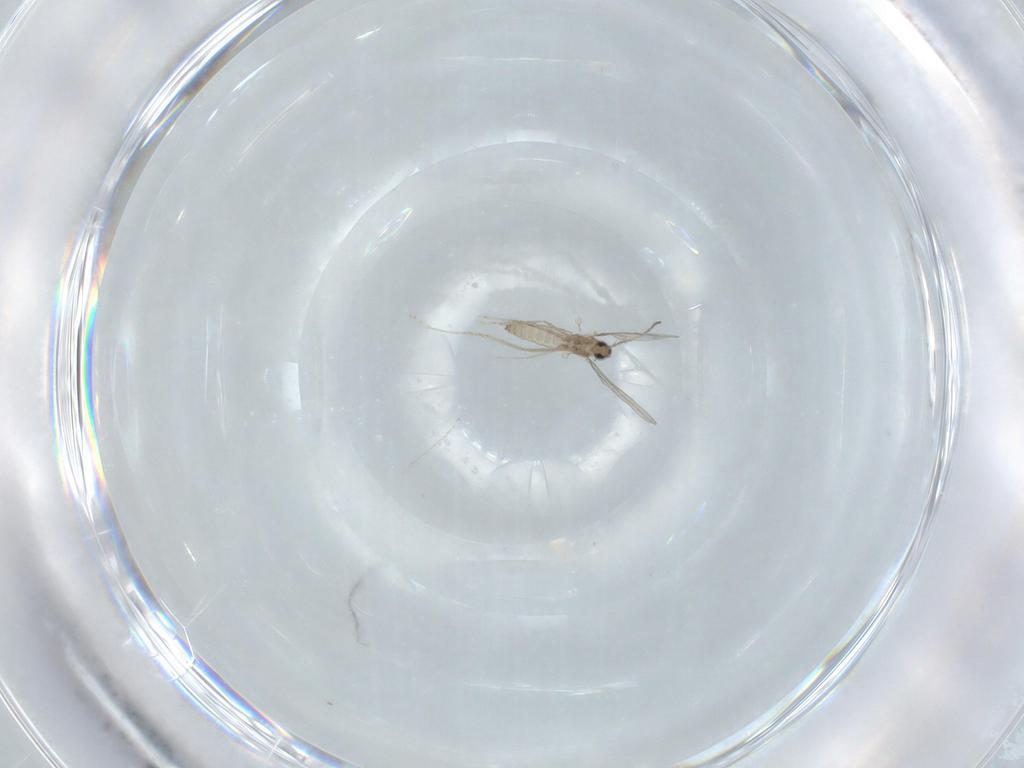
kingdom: Animalia
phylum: Arthropoda
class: Insecta
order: Diptera
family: Cecidomyiidae
